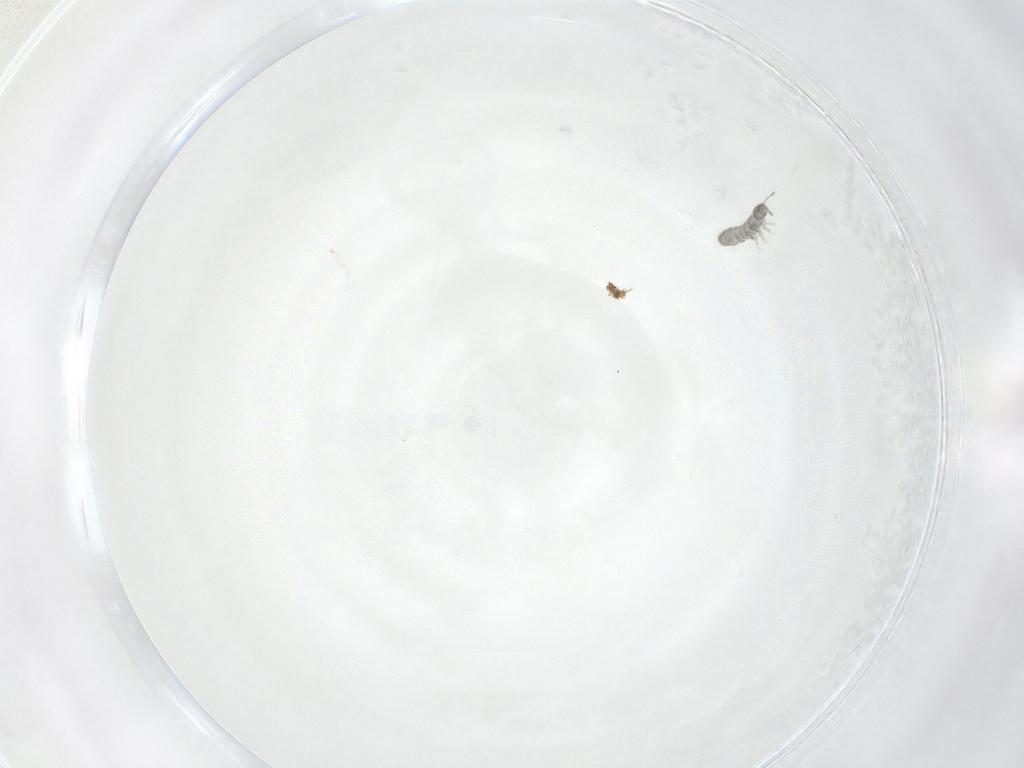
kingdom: Animalia
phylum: Arthropoda
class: Collembola
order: Entomobryomorpha
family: Isotomidae
